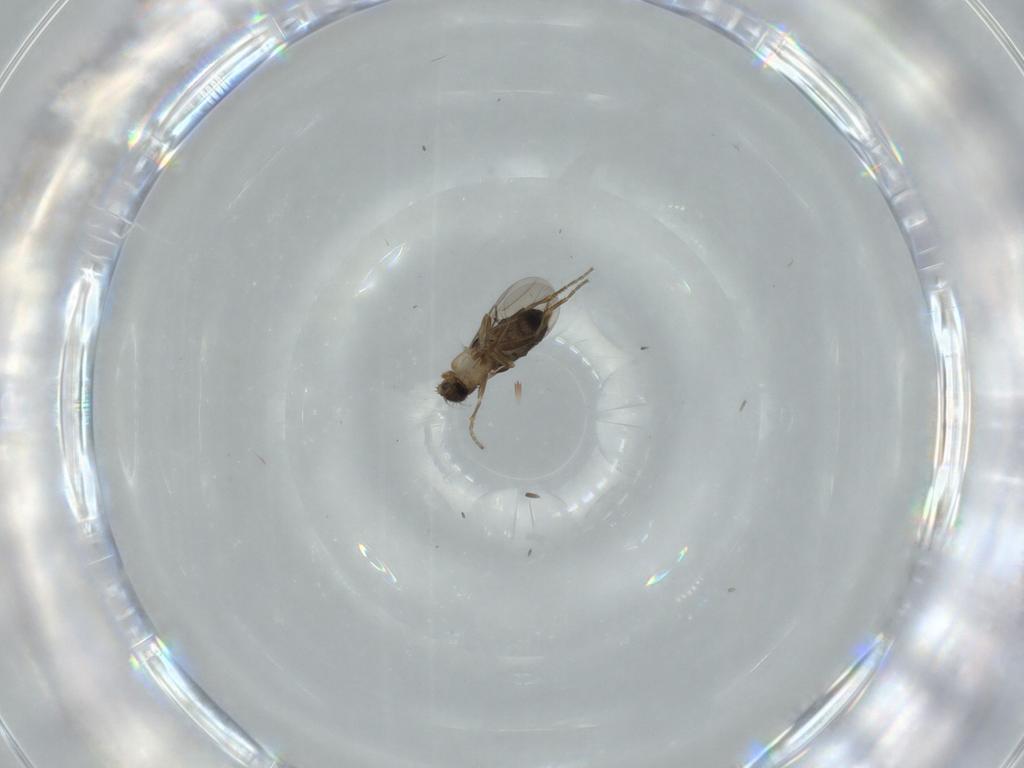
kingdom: Animalia
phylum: Arthropoda
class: Insecta
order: Diptera
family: Phoridae
